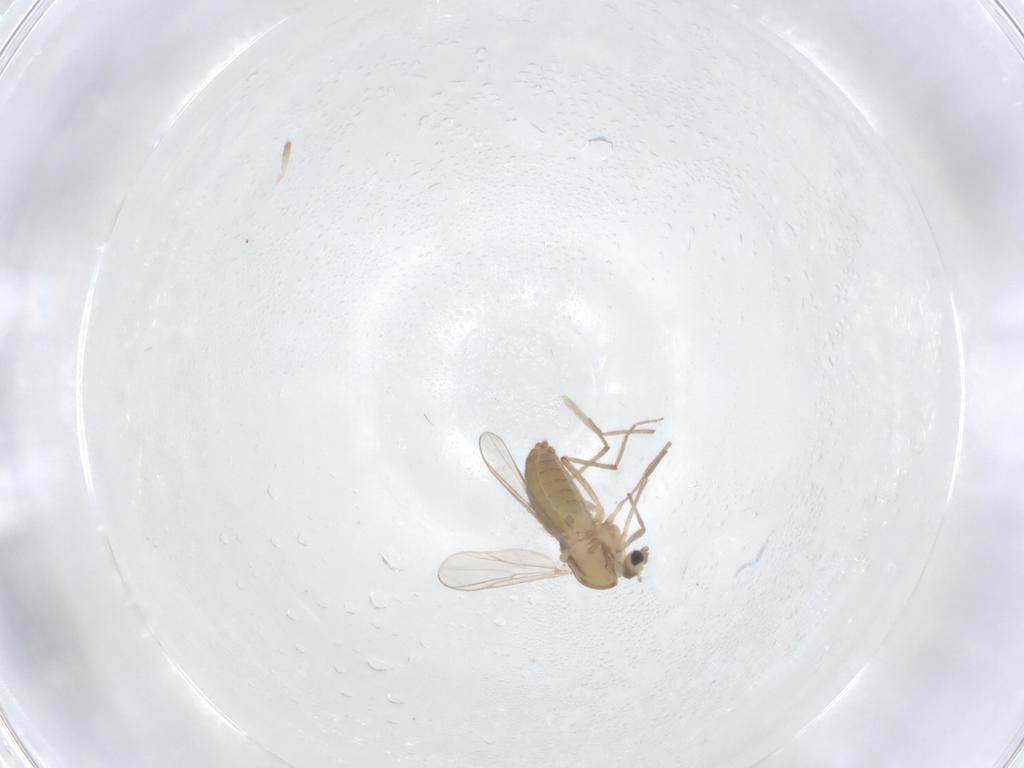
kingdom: Animalia
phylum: Arthropoda
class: Insecta
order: Diptera
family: Chironomidae
